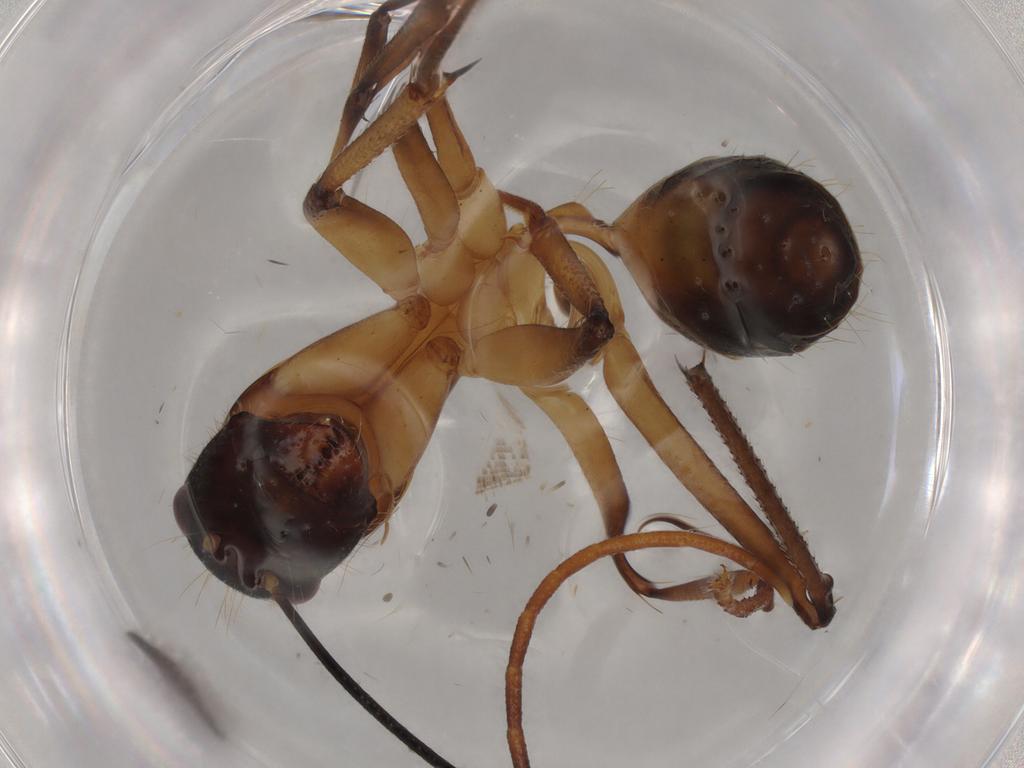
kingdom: Animalia
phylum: Arthropoda
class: Insecta
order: Hymenoptera
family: Formicidae
